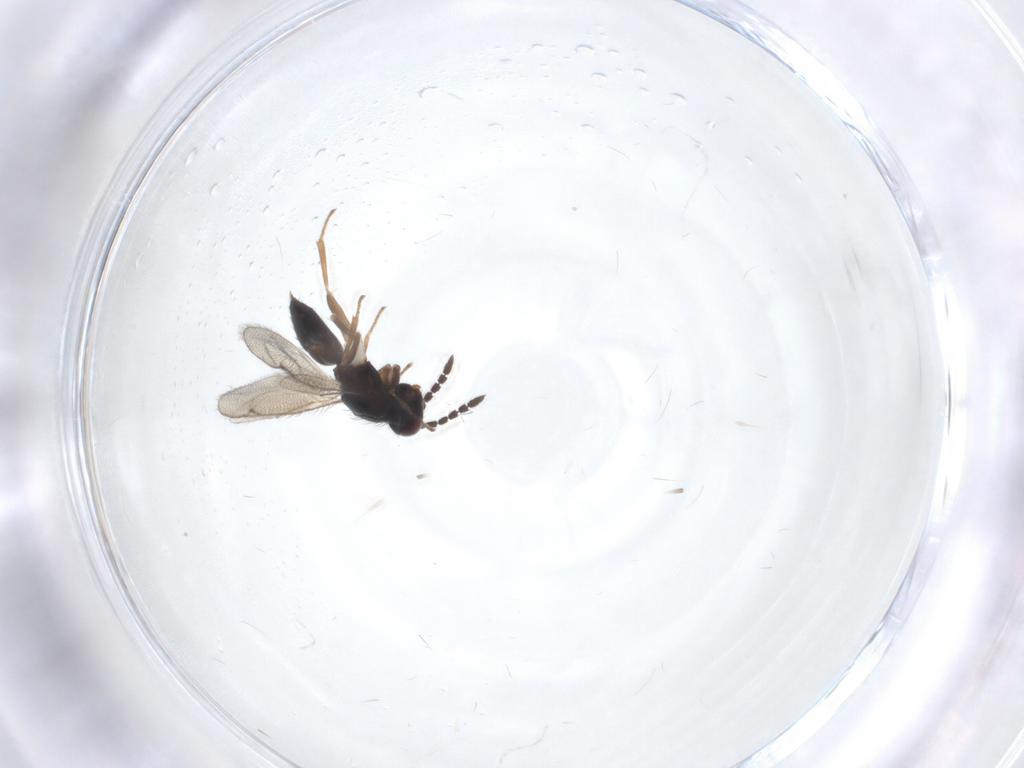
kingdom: Animalia
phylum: Arthropoda
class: Insecta
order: Hymenoptera
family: Eulophidae
